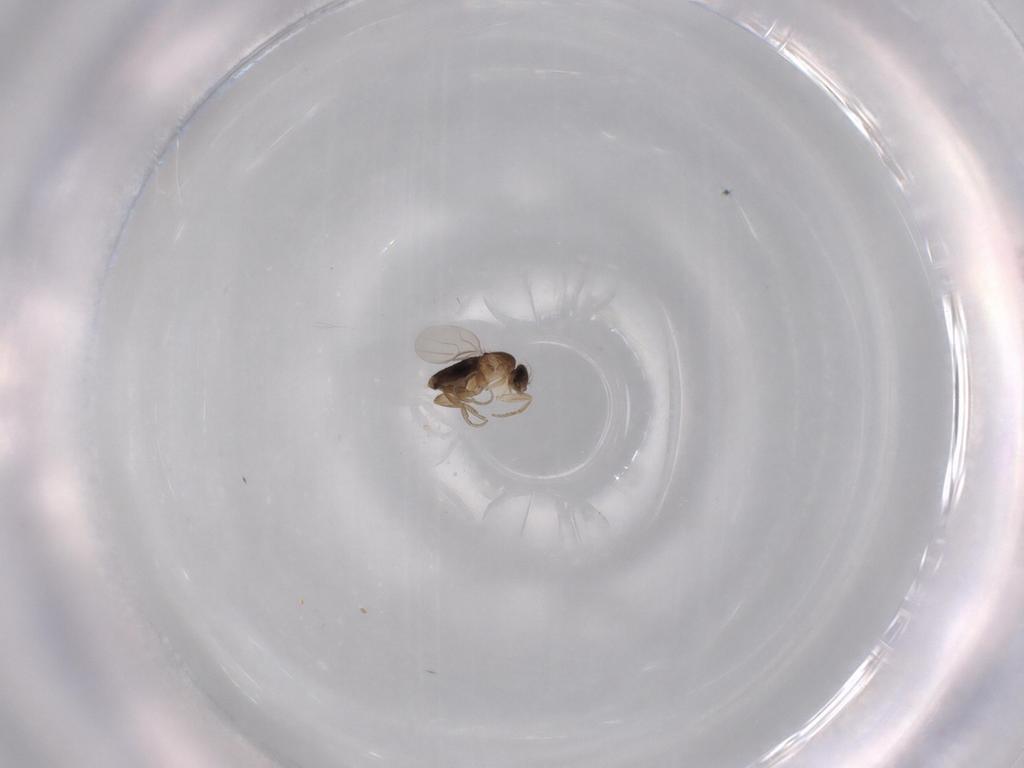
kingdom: Animalia
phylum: Arthropoda
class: Insecta
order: Diptera
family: Phoridae
